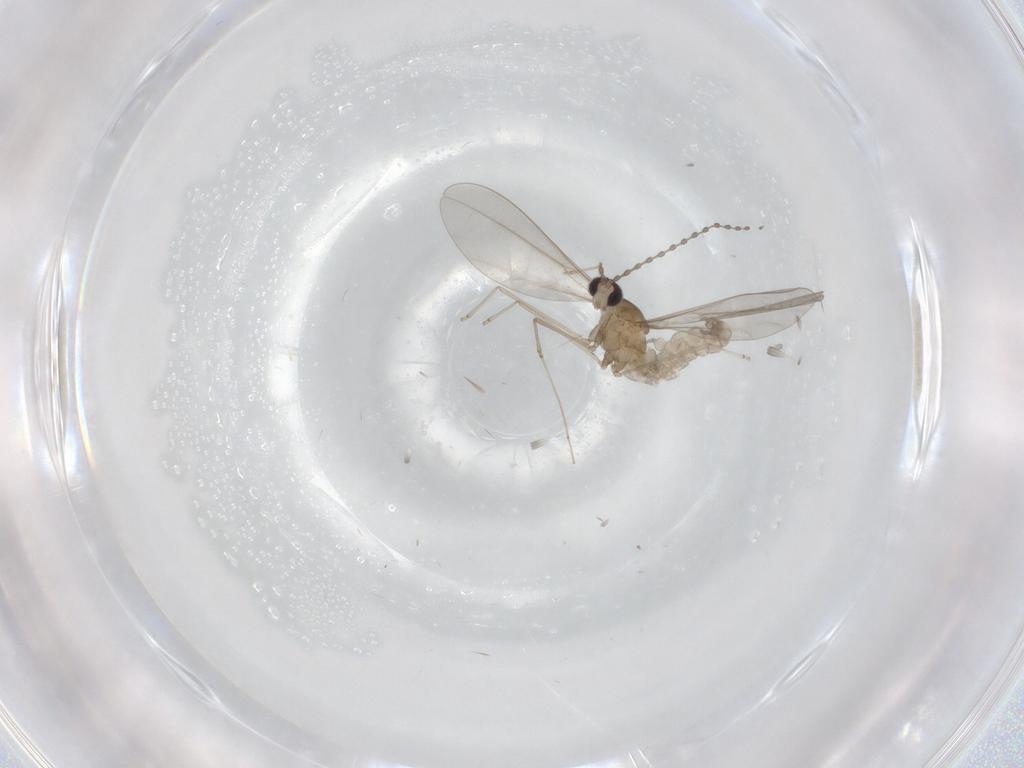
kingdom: Animalia
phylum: Arthropoda
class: Insecta
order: Diptera
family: Cecidomyiidae
